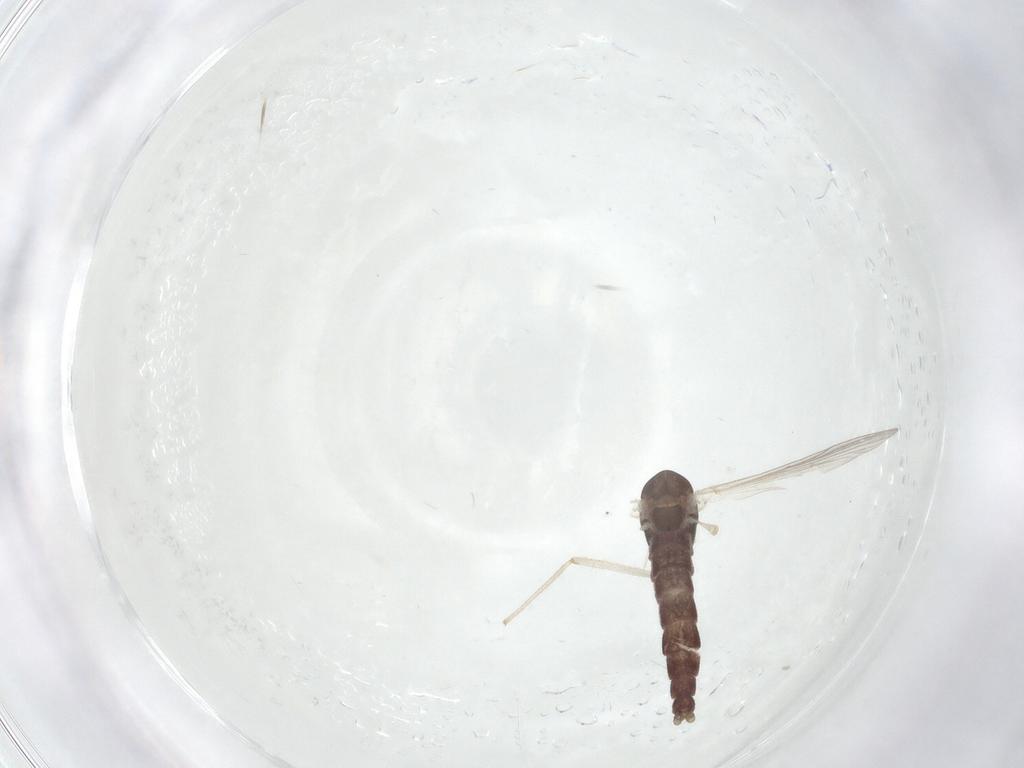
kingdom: Animalia
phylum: Arthropoda
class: Insecta
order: Diptera
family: Chironomidae
